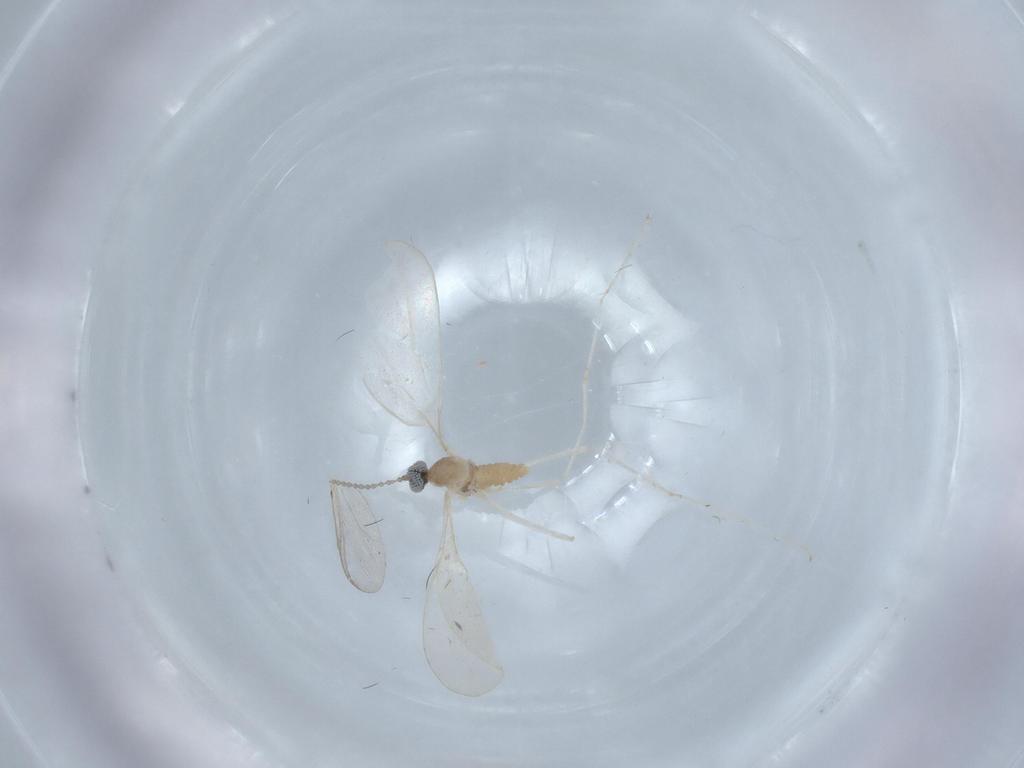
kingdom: Animalia
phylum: Arthropoda
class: Insecta
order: Diptera
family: Cecidomyiidae
